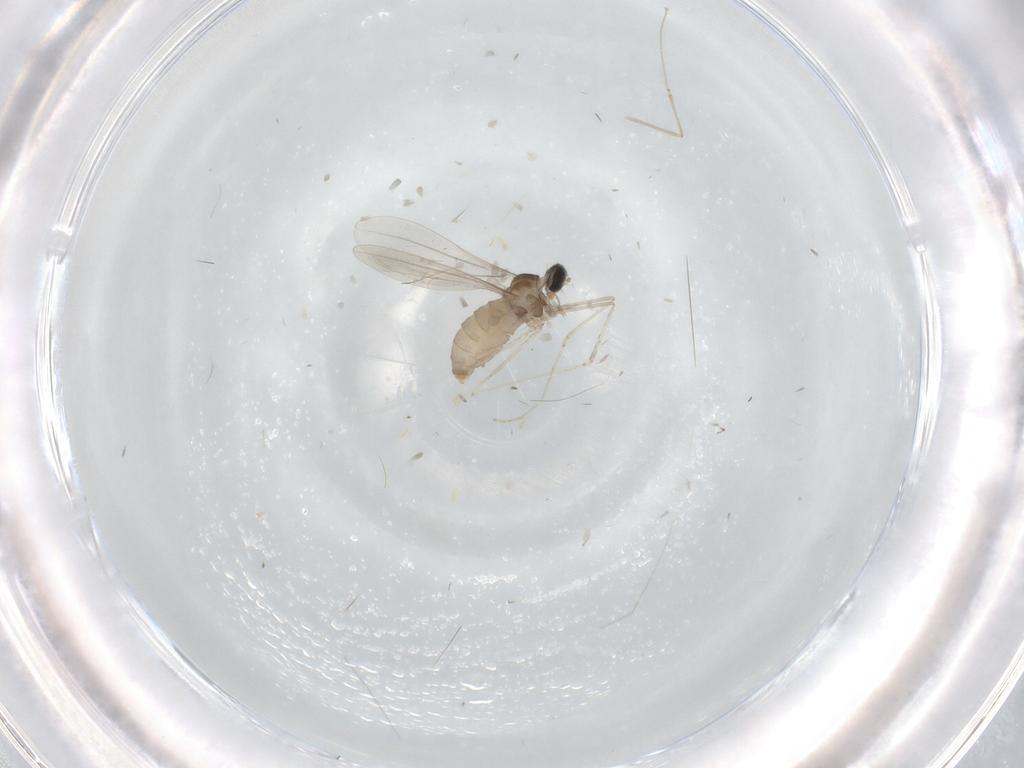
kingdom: Animalia
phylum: Arthropoda
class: Insecta
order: Diptera
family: Cecidomyiidae
